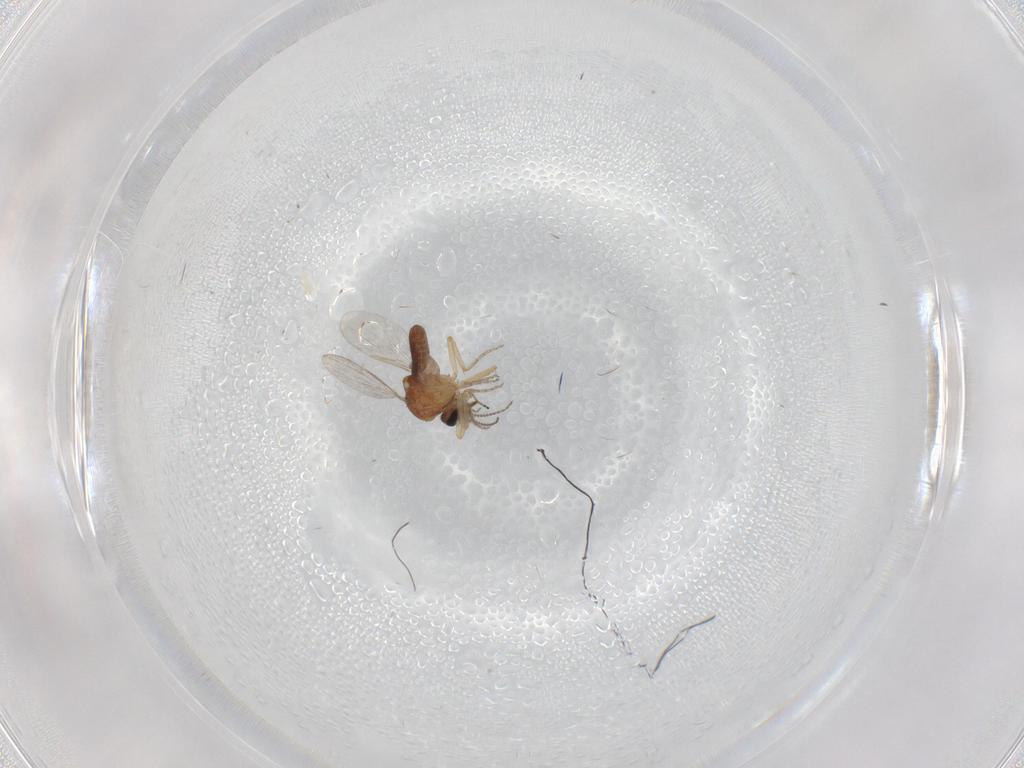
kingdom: Animalia
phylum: Arthropoda
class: Insecta
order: Diptera
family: Ceratopogonidae
